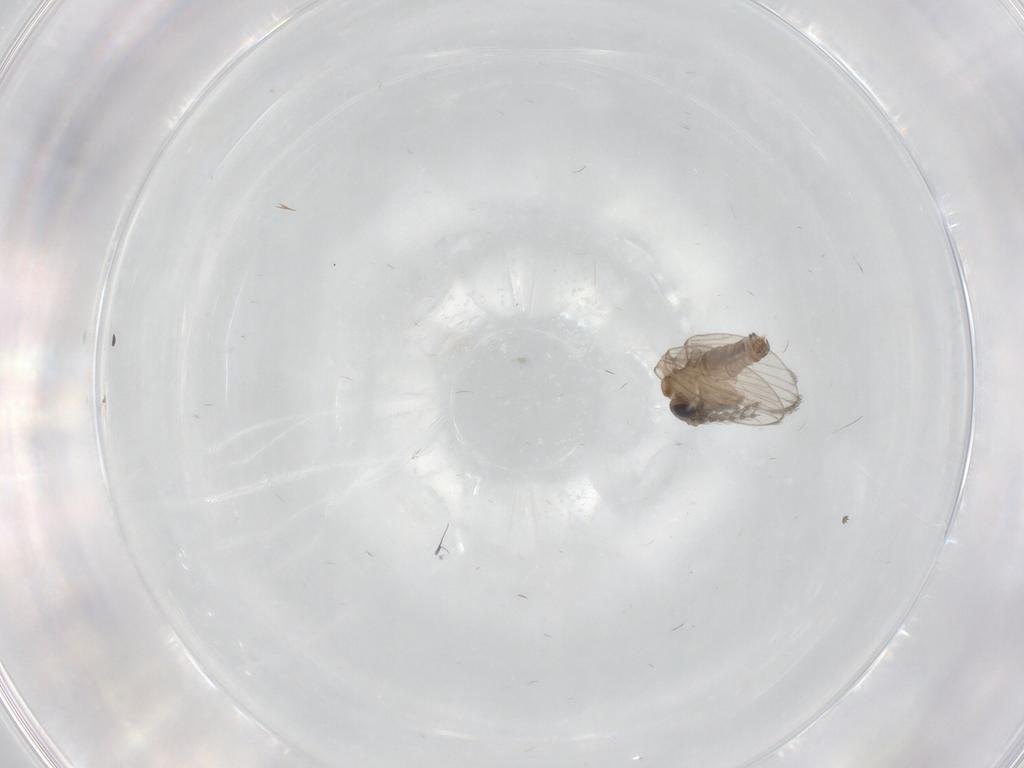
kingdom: Animalia
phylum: Arthropoda
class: Insecta
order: Diptera
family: Psychodidae
